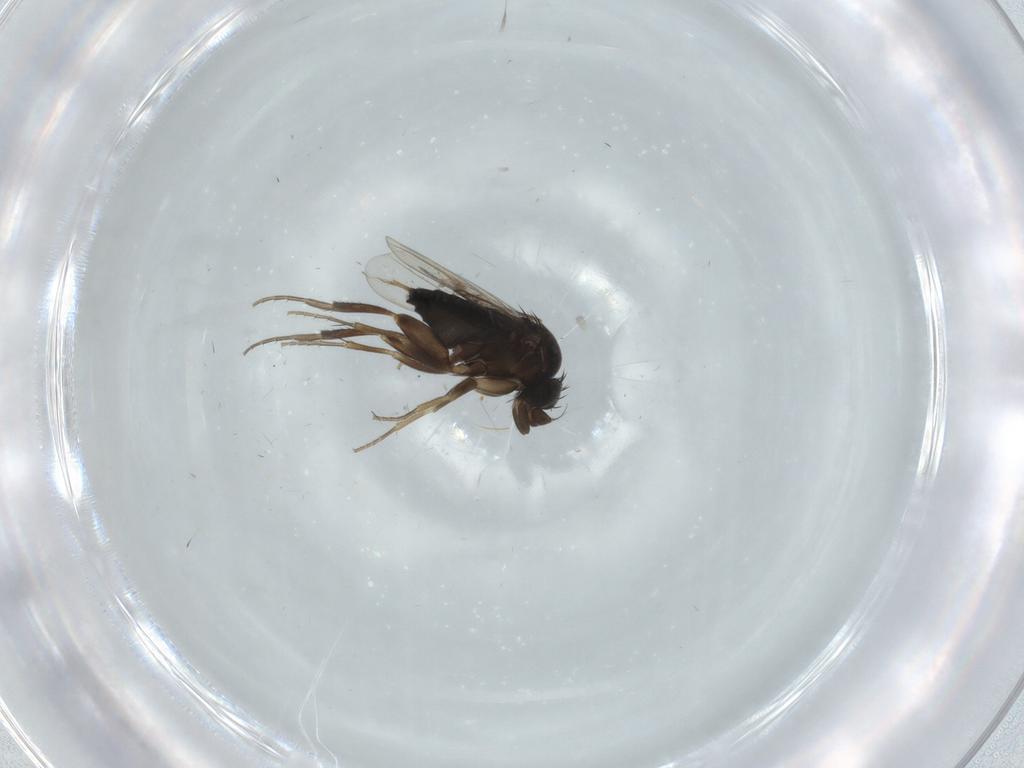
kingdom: Animalia
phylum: Arthropoda
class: Insecta
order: Diptera
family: Phoridae
